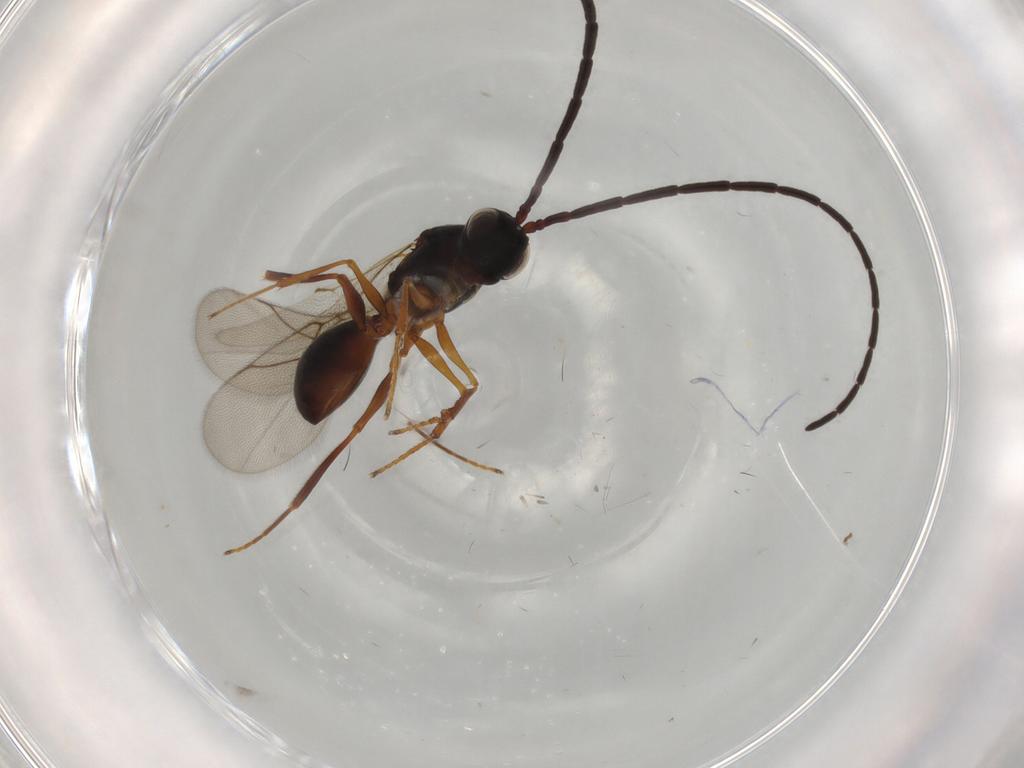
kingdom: Animalia
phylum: Arthropoda
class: Insecta
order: Hymenoptera
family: Figitidae
